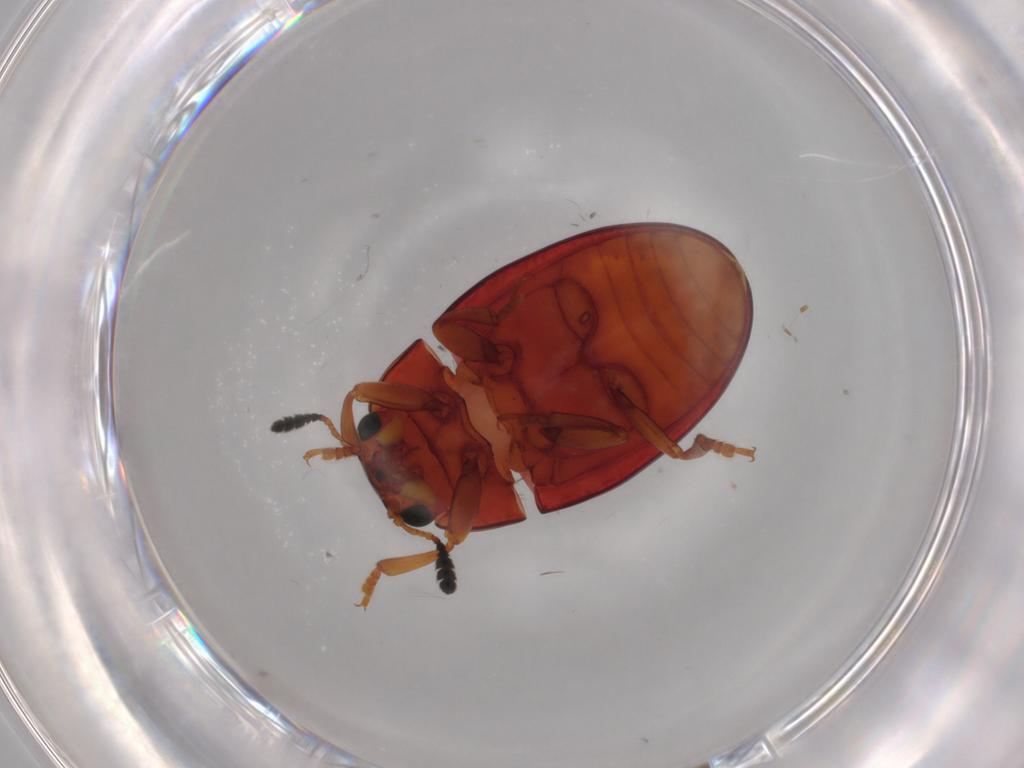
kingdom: Animalia
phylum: Arthropoda
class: Insecta
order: Coleoptera
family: Erotylidae
